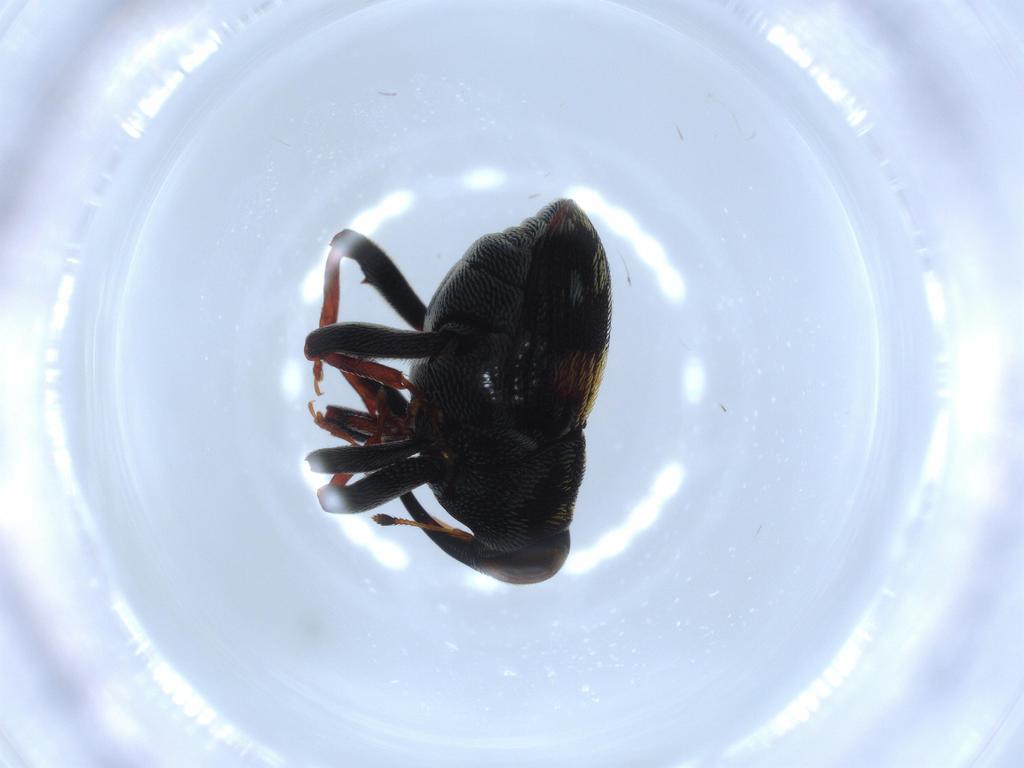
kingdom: Animalia
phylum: Arthropoda
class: Insecta
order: Coleoptera
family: Curculionidae
